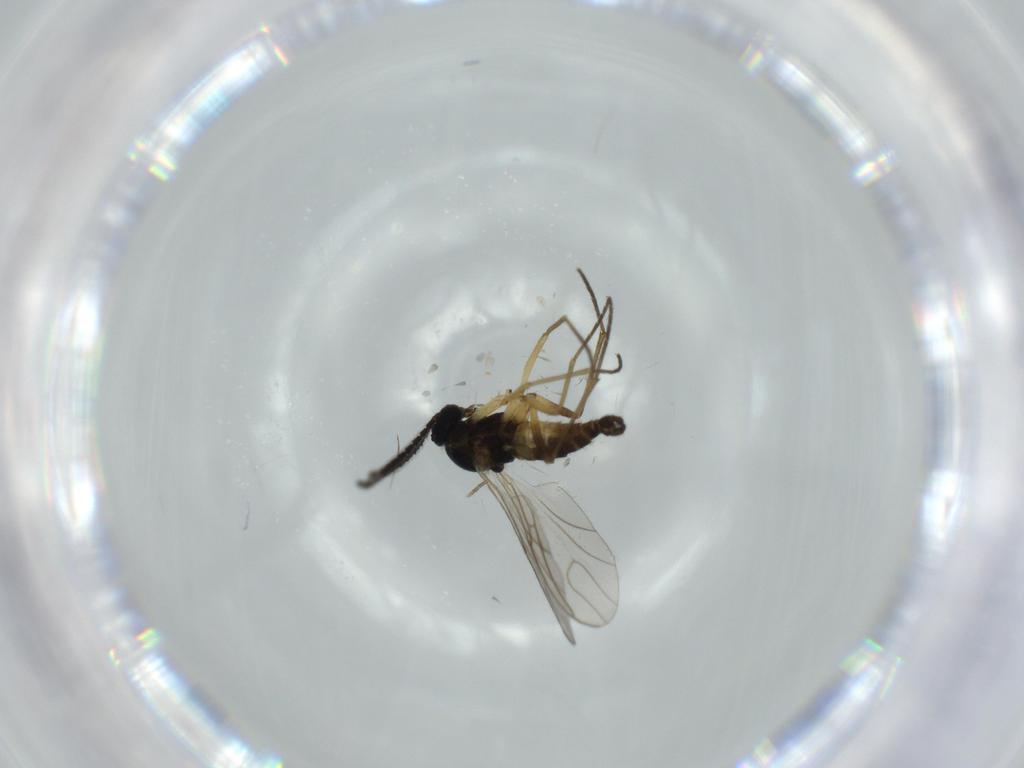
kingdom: Animalia
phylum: Arthropoda
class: Insecta
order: Diptera
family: Sciaridae
